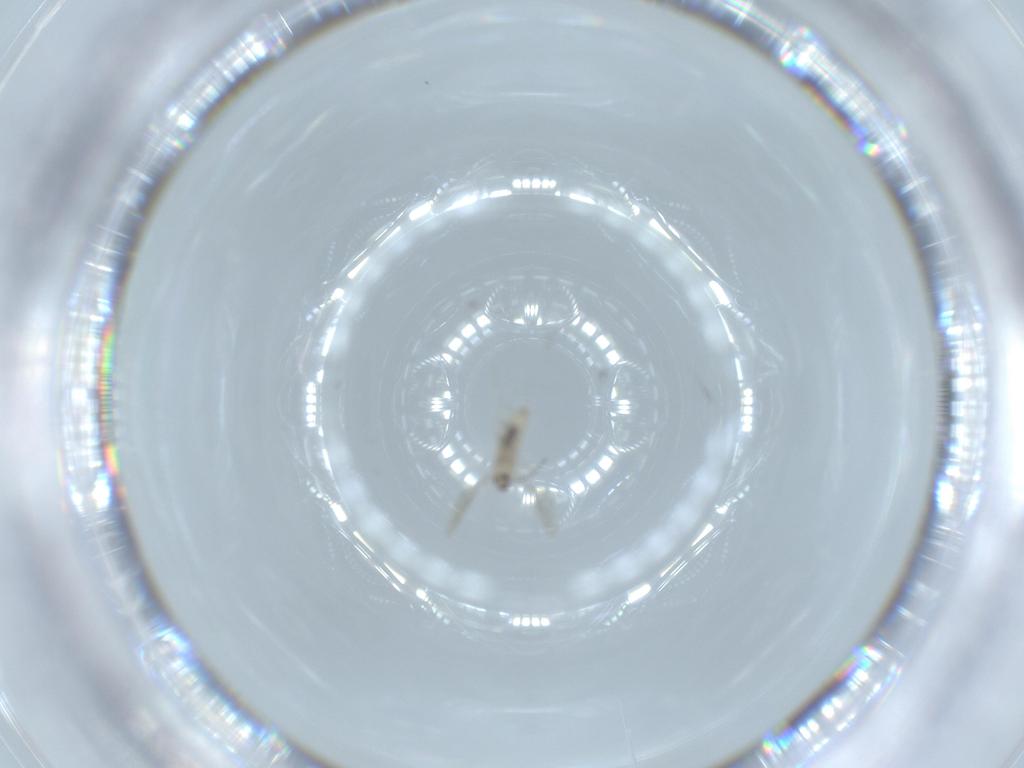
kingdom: Animalia
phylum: Arthropoda
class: Insecta
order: Diptera
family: Cecidomyiidae
